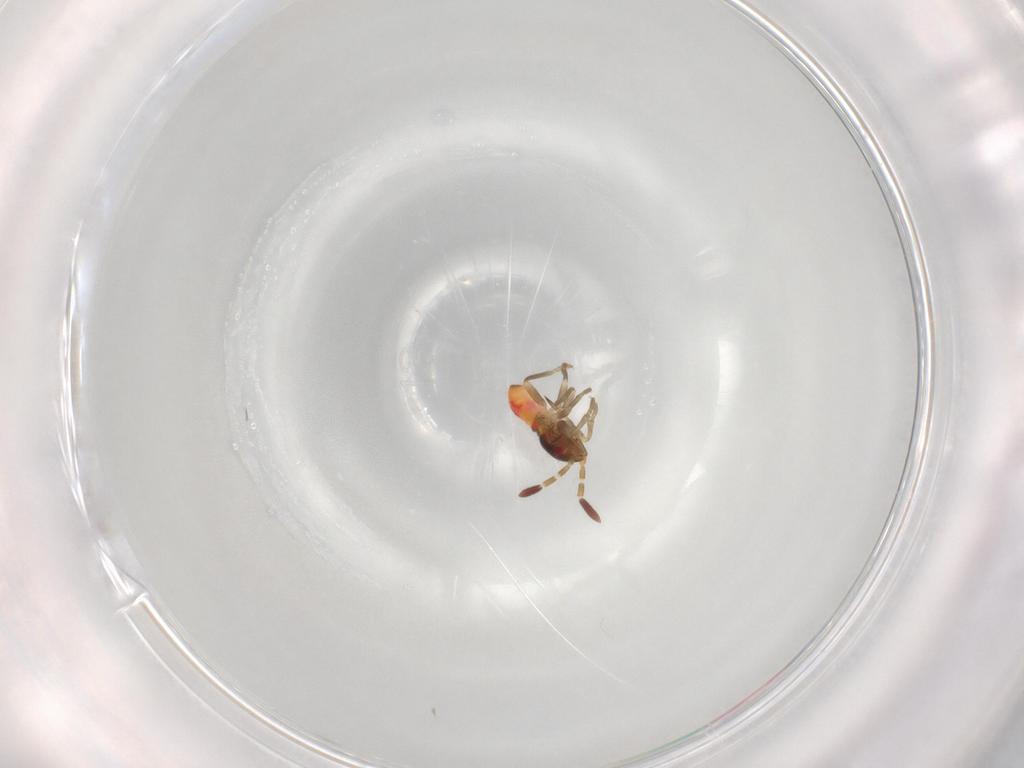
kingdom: Animalia
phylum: Arthropoda
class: Insecta
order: Hemiptera
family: Rhyparochromidae
